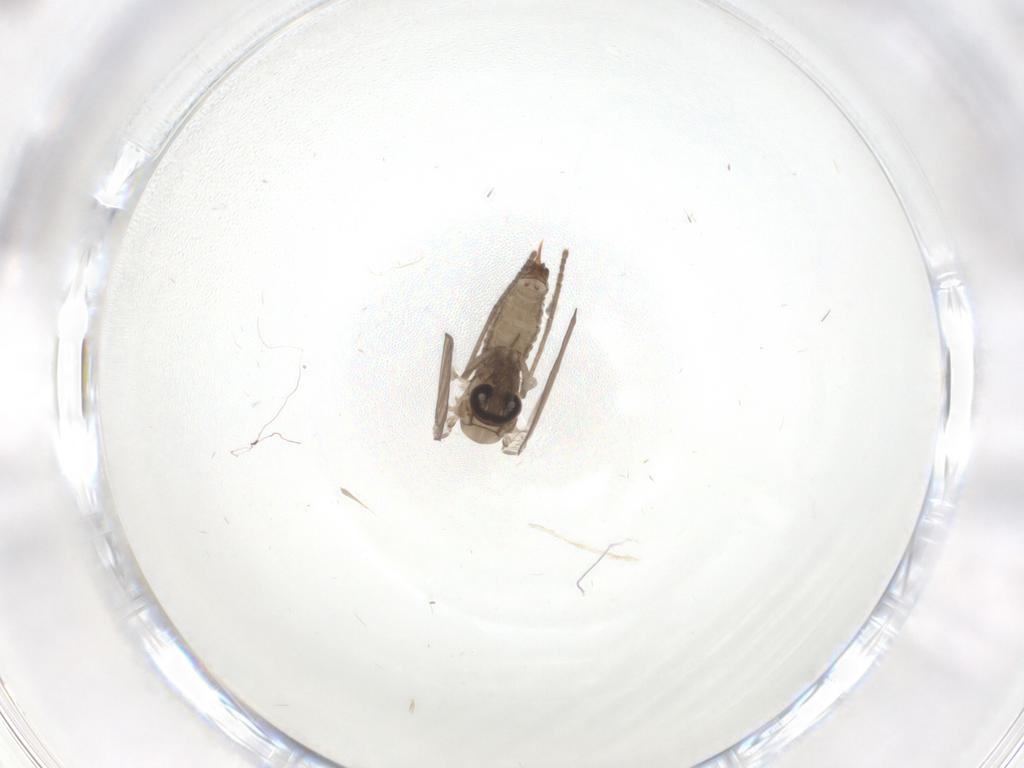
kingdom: Animalia
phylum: Arthropoda
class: Insecta
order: Diptera
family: Psychodidae
